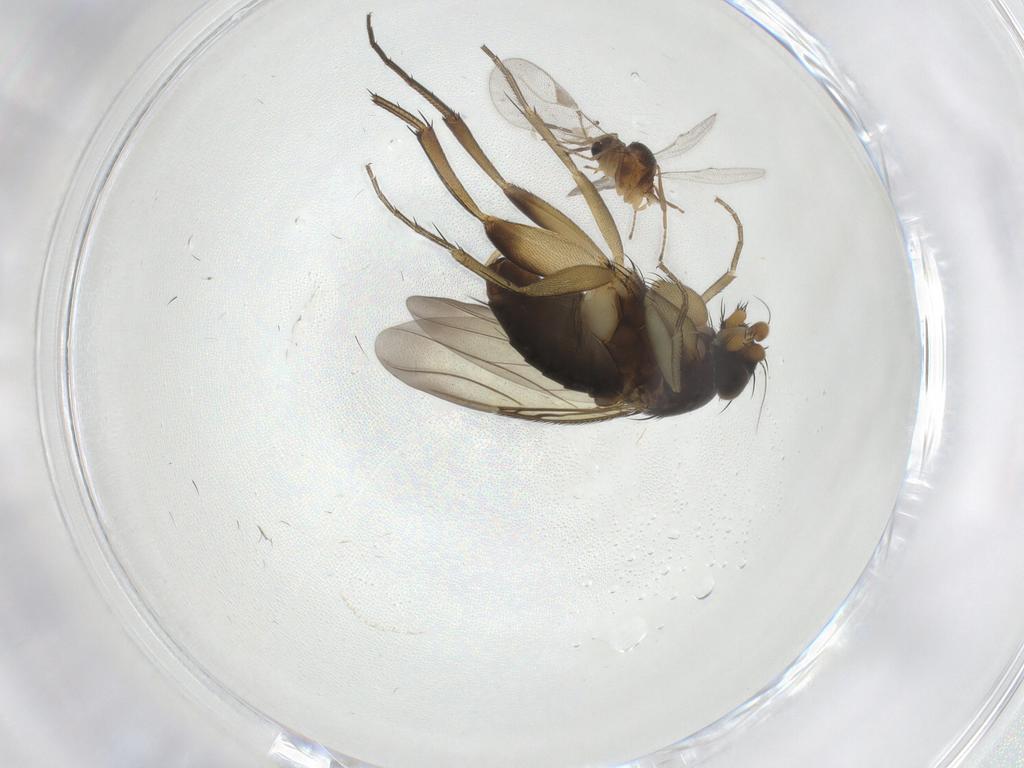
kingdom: Animalia
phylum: Arthropoda
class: Insecta
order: Diptera
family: Phoridae
